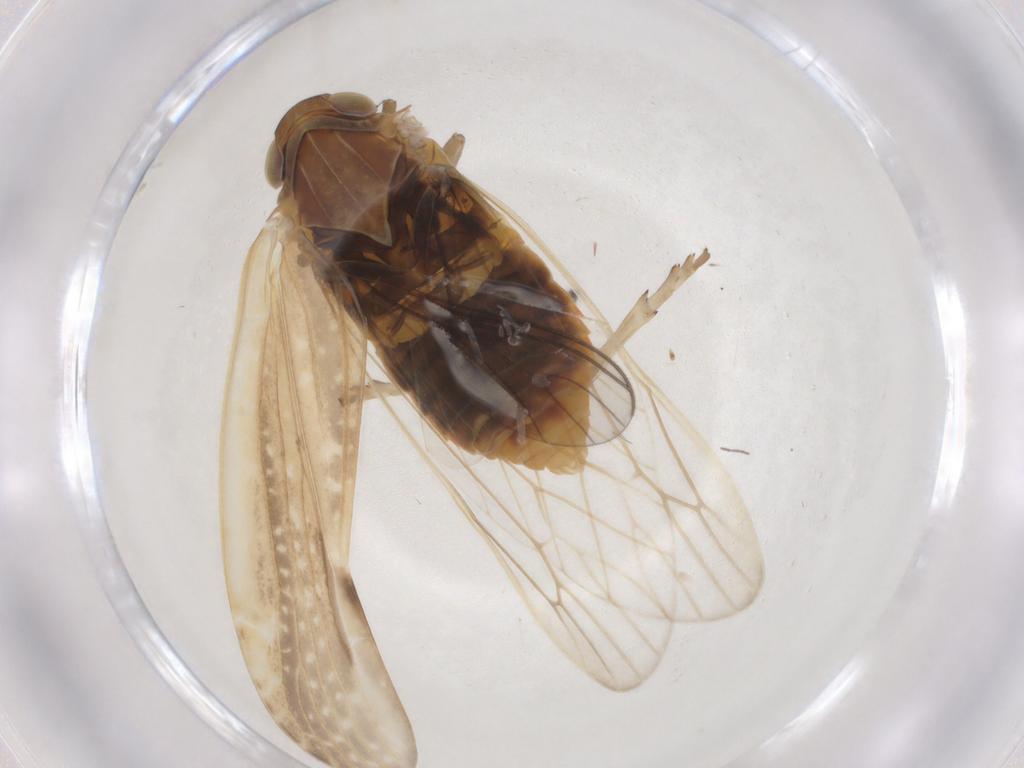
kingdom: Animalia
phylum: Arthropoda
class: Insecta
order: Hemiptera
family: Achilidae
